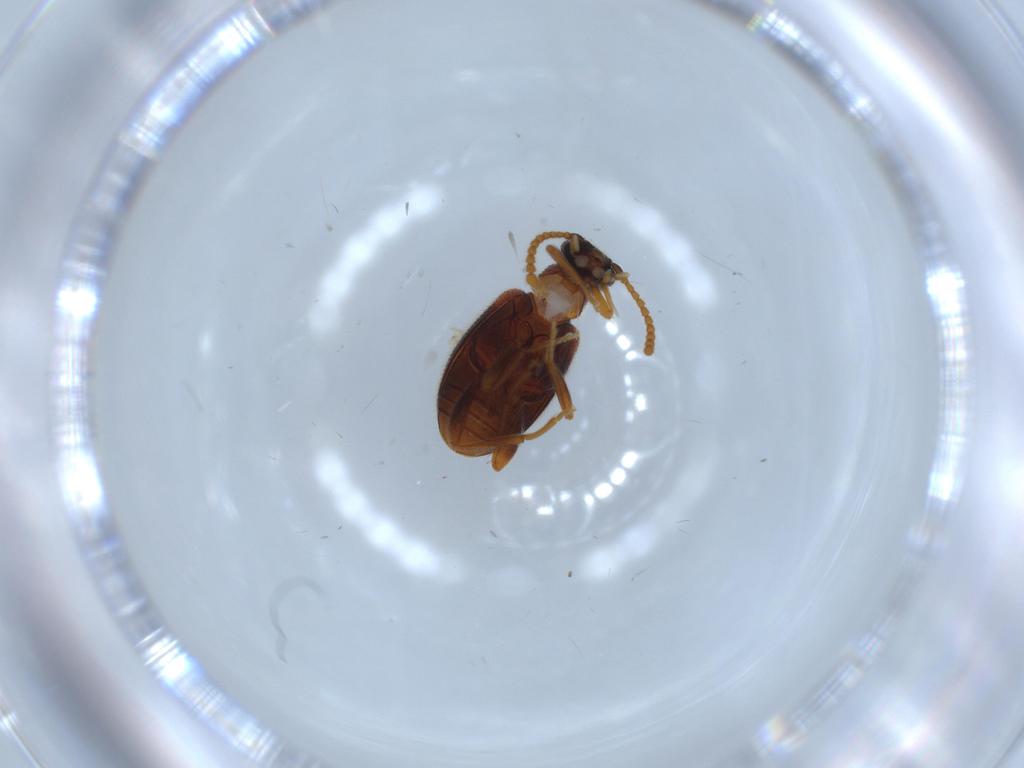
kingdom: Animalia
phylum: Arthropoda
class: Insecta
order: Coleoptera
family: Aderidae
